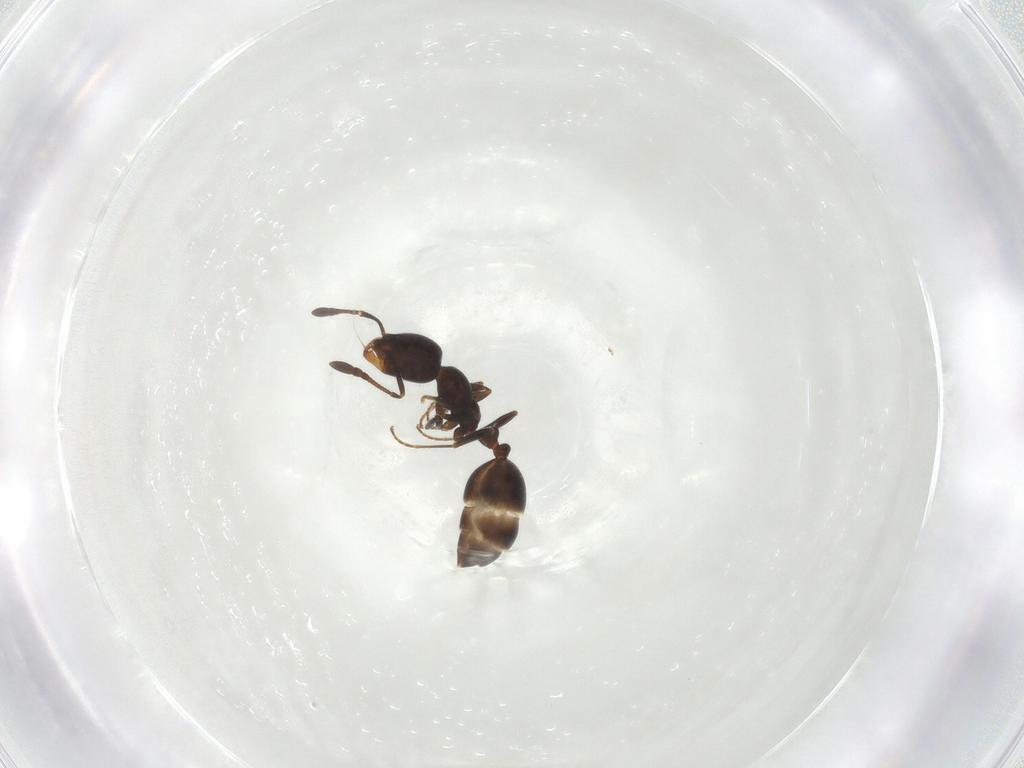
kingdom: Animalia
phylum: Arthropoda
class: Insecta
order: Hymenoptera
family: Formicidae
